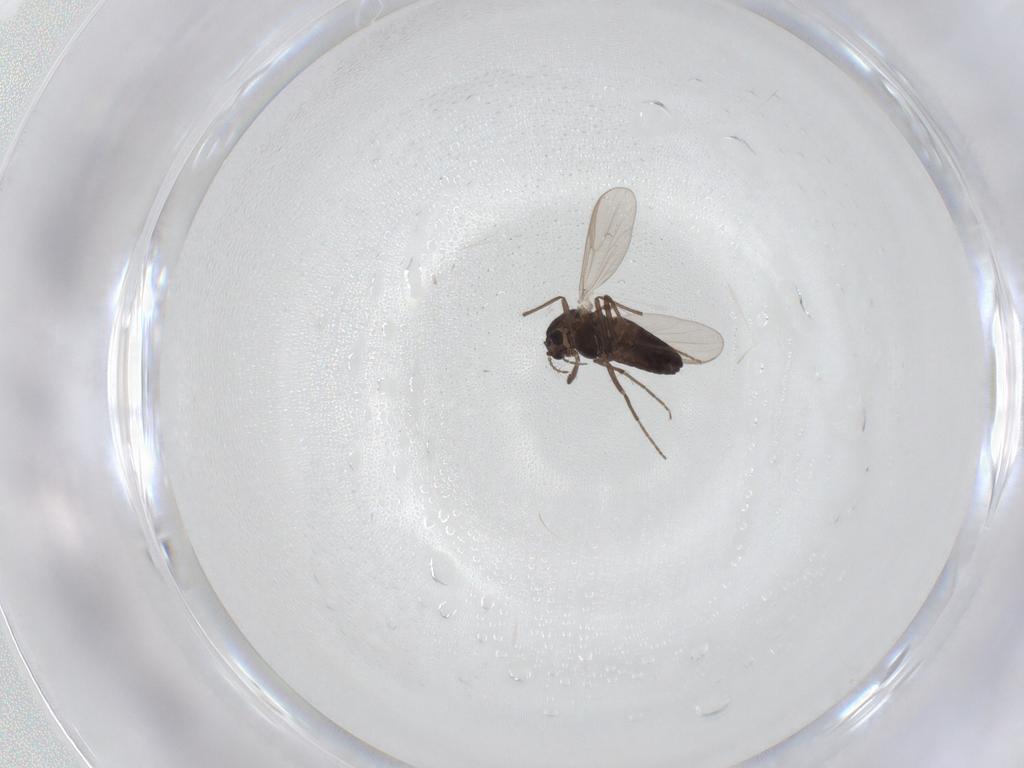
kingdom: Animalia
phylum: Arthropoda
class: Insecta
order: Diptera
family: Chironomidae
